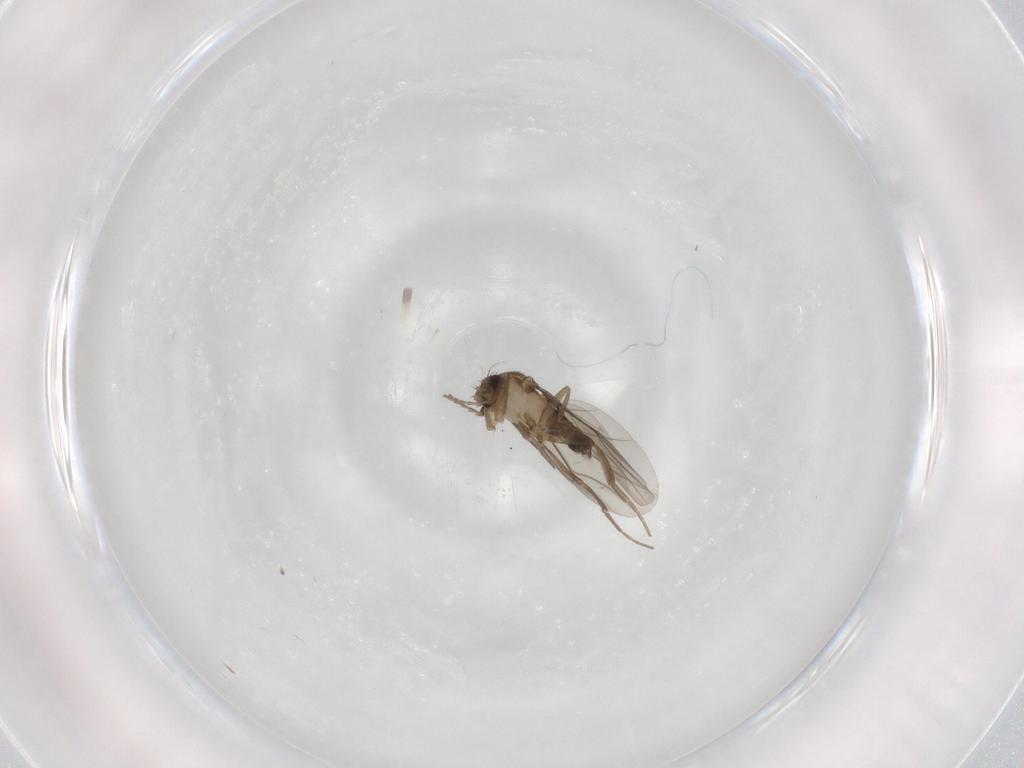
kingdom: Animalia
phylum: Arthropoda
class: Insecta
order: Diptera
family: Phoridae
